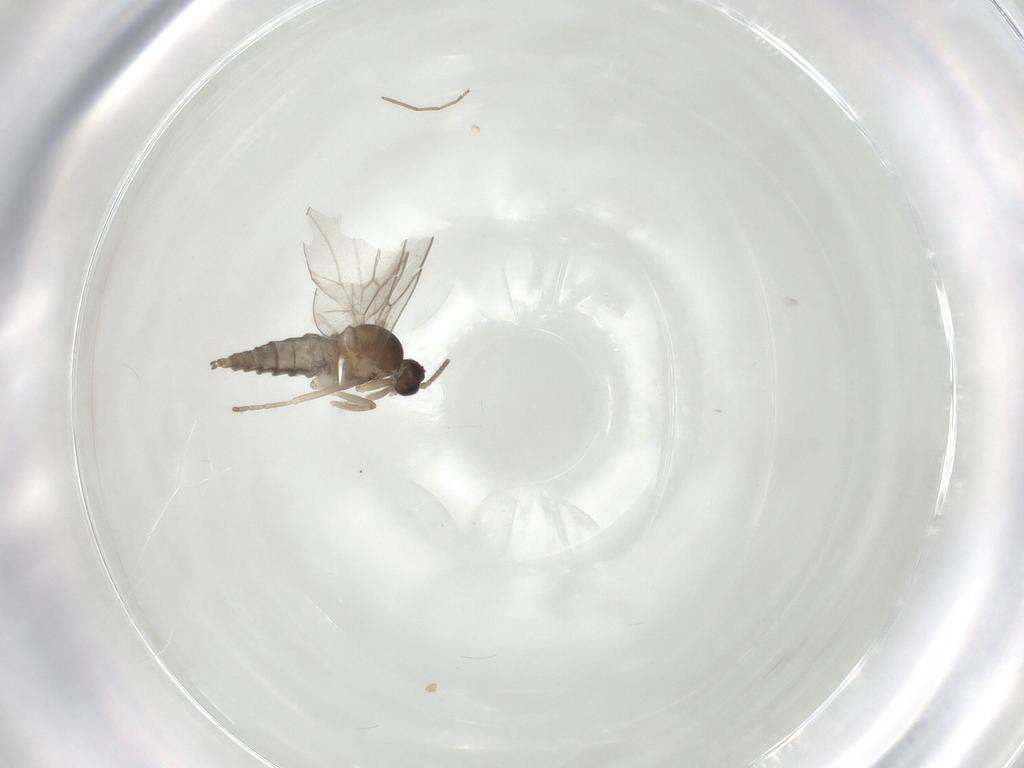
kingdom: Animalia
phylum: Arthropoda
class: Insecta
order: Diptera
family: Cecidomyiidae
